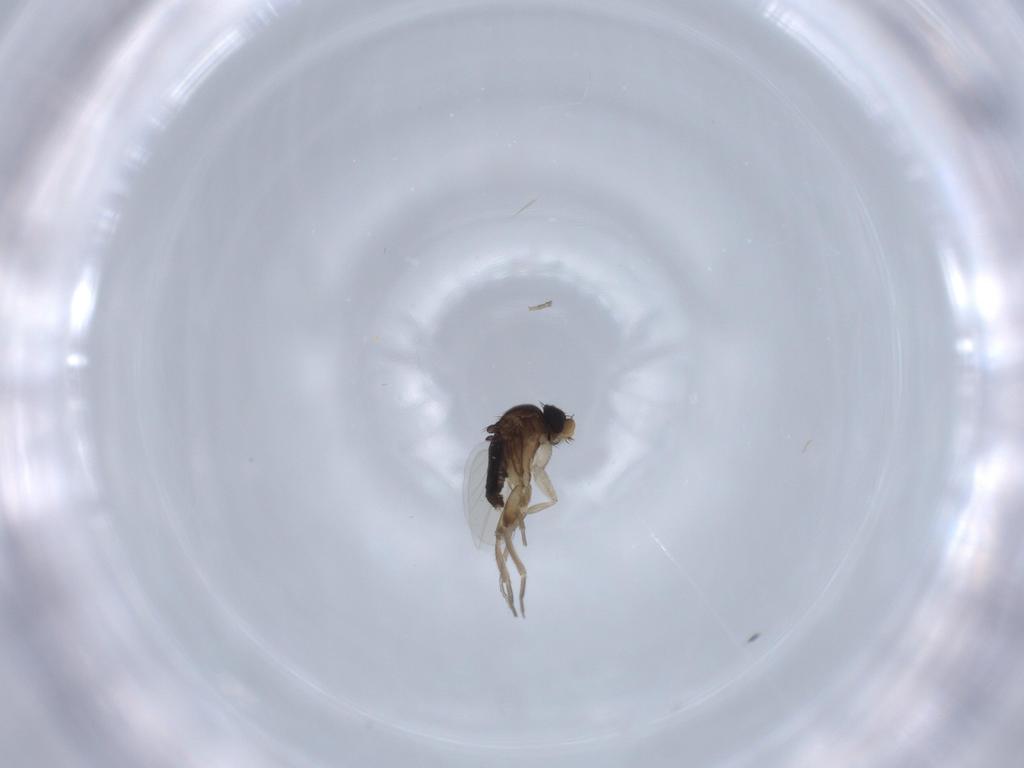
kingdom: Animalia
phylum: Arthropoda
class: Insecta
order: Diptera
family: Phoridae
